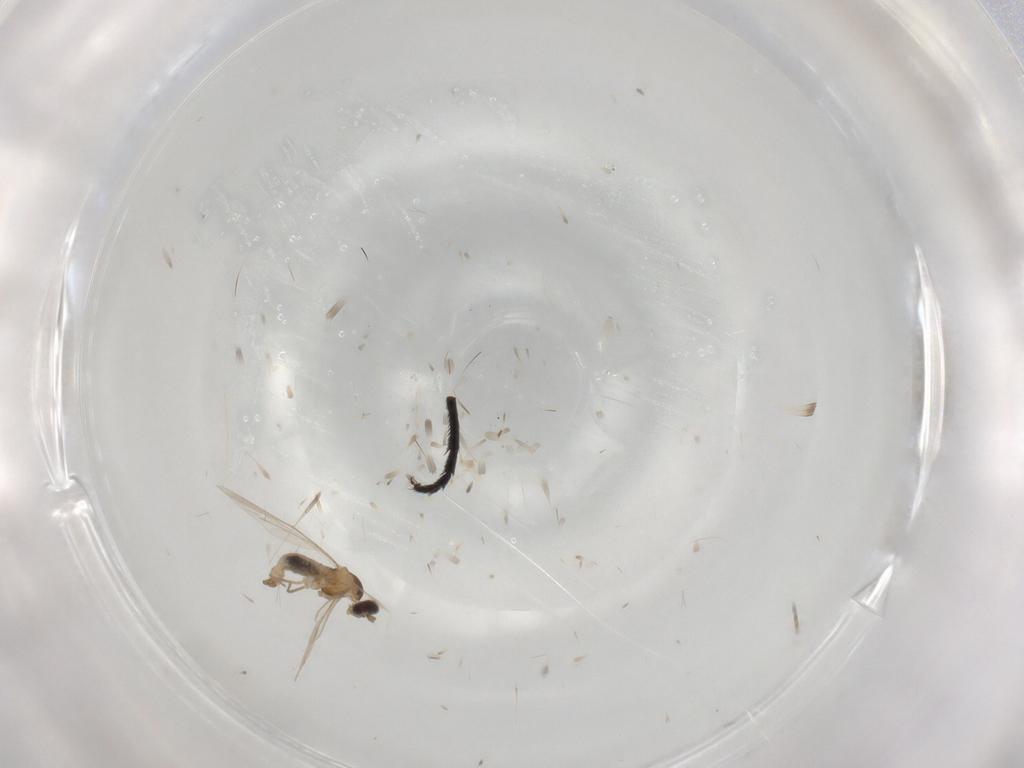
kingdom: Animalia
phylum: Arthropoda
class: Insecta
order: Diptera
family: Sarcophagidae
